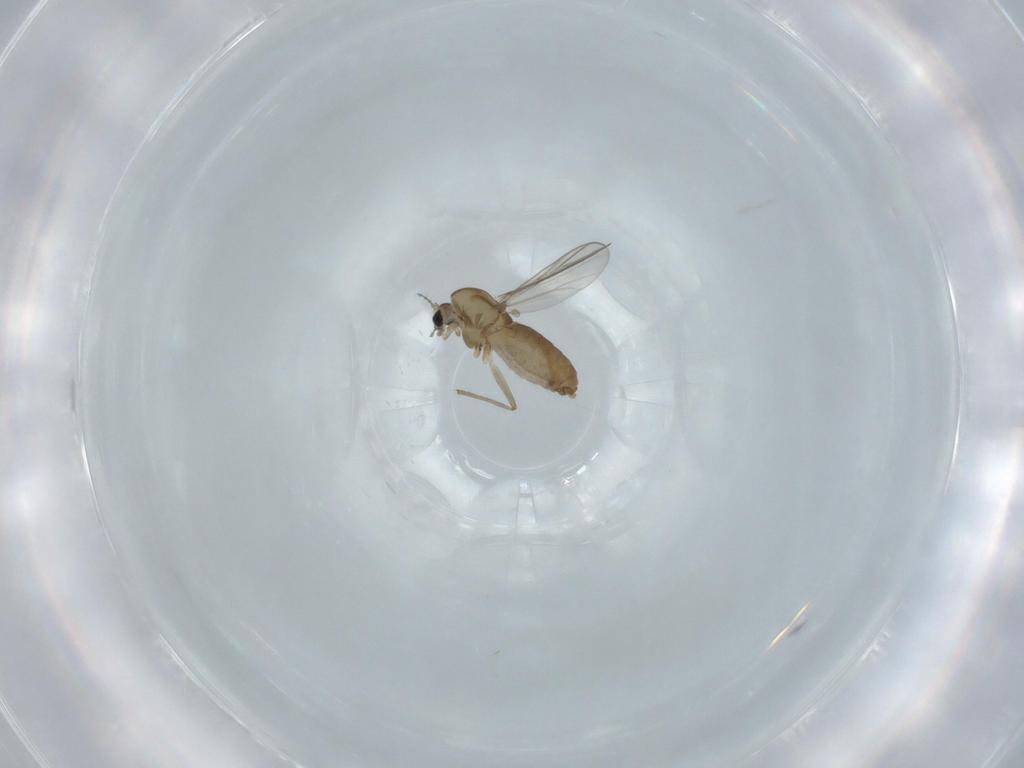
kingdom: Animalia
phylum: Arthropoda
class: Insecta
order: Diptera
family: Chironomidae
